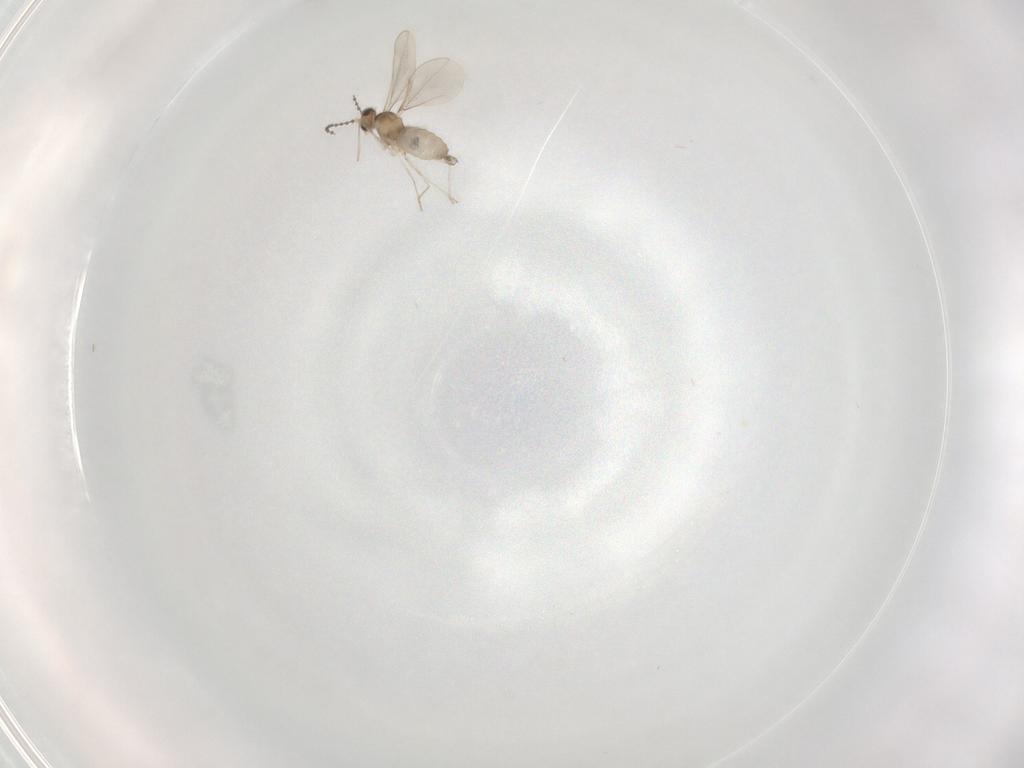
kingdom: Animalia
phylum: Arthropoda
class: Insecta
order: Diptera
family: Cecidomyiidae
